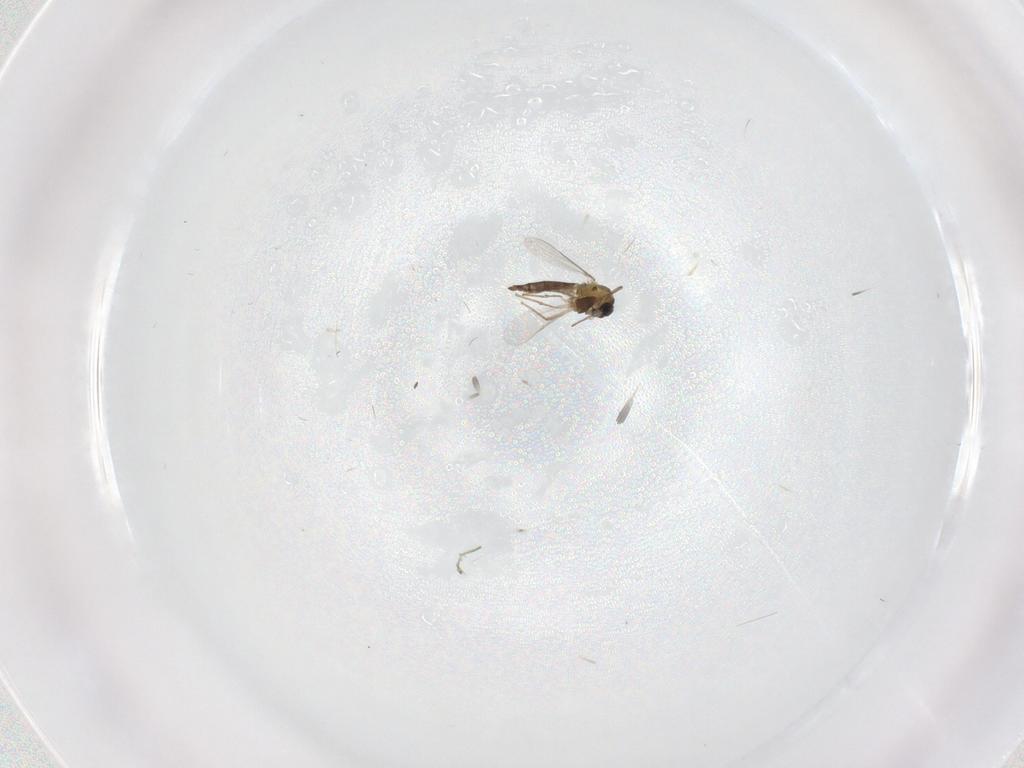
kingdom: Animalia
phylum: Arthropoda
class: Insecta
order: Diptera
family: Chironomidae
